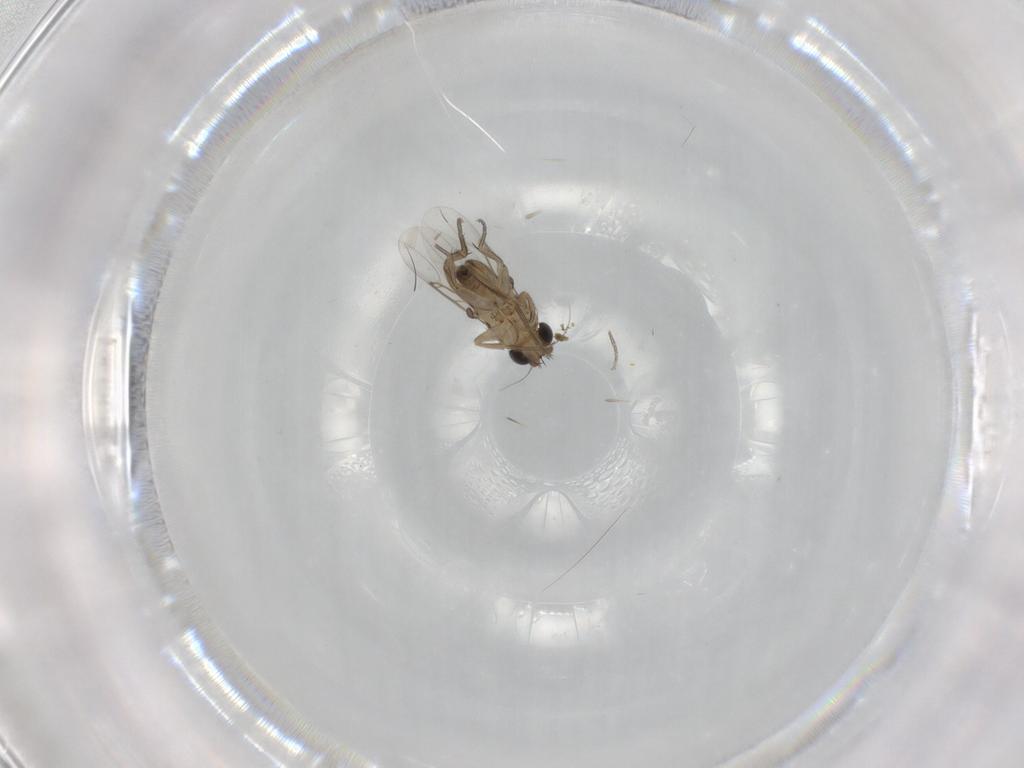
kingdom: Animalia
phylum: Arthropoda
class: Insecta
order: Diptera
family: Phoridae
